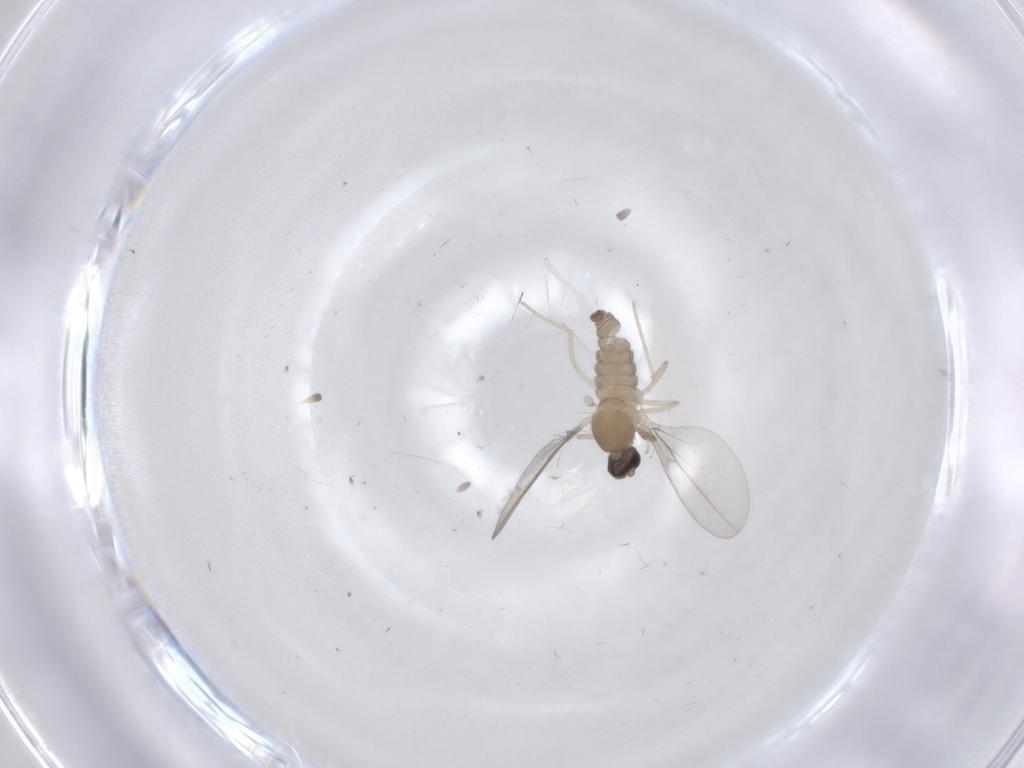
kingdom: Animalia
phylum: Arthropoda
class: Insecta
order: Diptera
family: Cecidomyiidae
